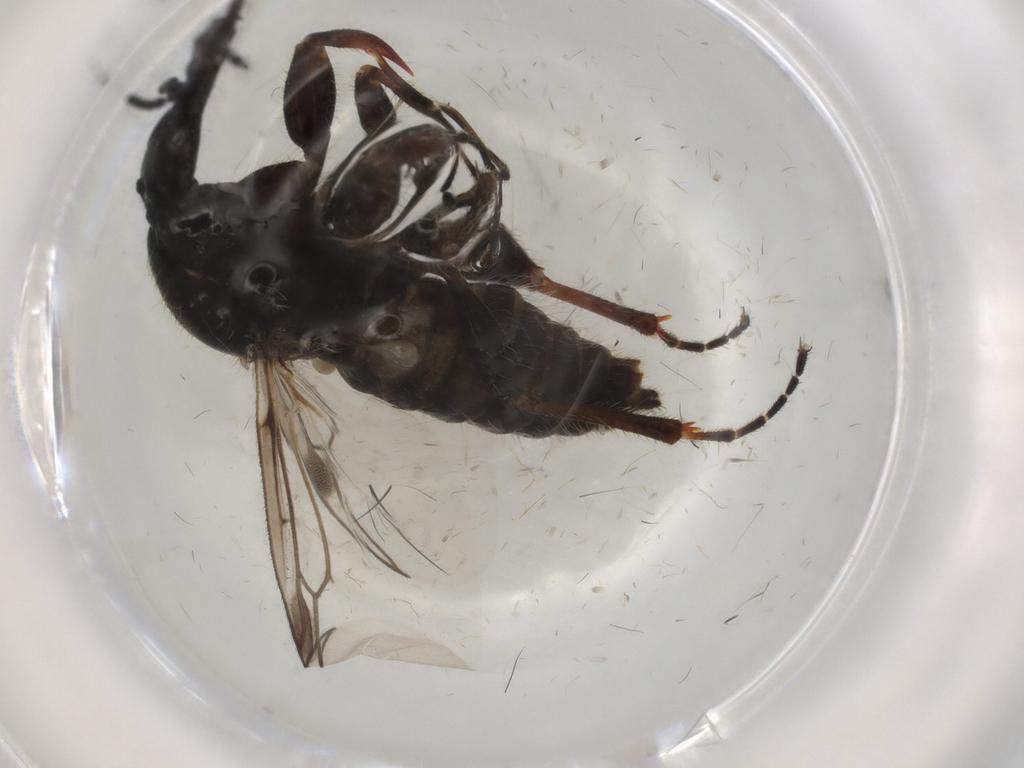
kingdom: Animalia
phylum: Arthropoda
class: Insecta
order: Diptera
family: Bibionidae
